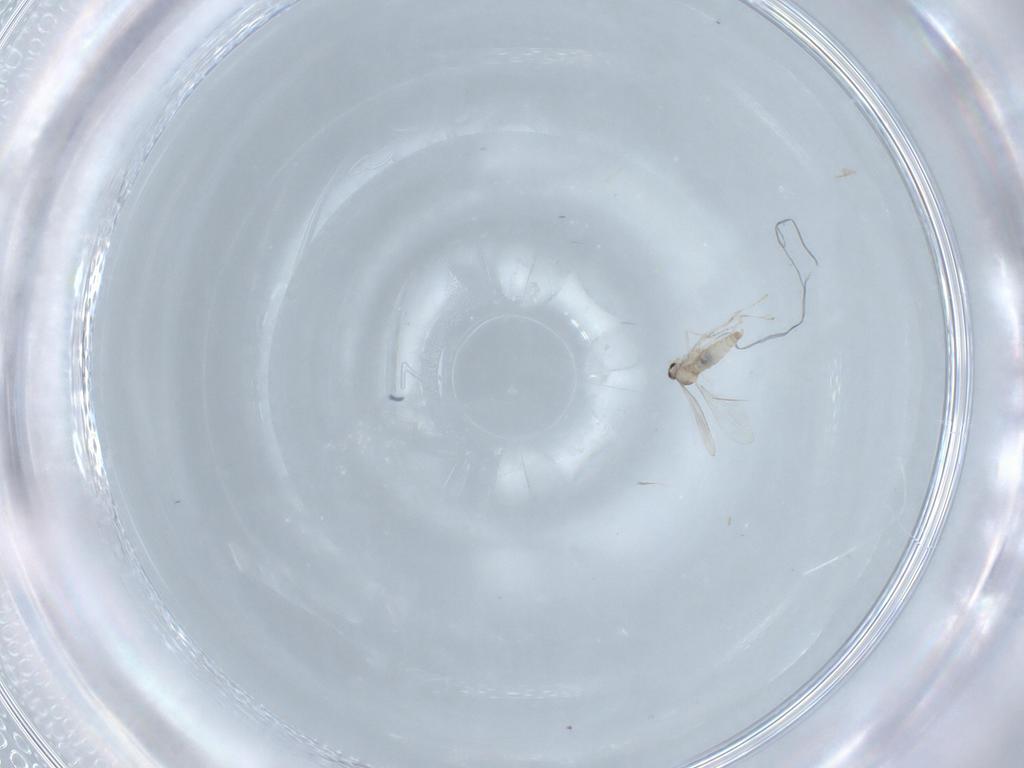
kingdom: Animalia
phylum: Arthropoda
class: Insecta
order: Diptera
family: Cecidomyiidae
